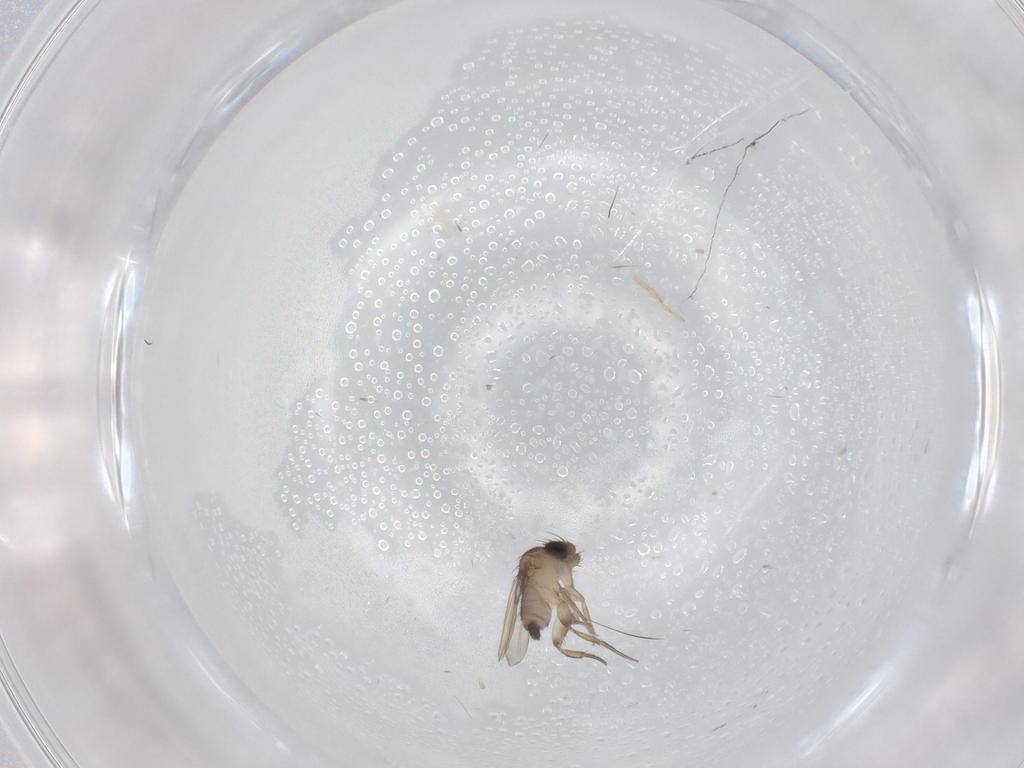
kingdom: Animalia
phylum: Arthropoda
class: Insecta
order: Diptera
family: Phoridae
